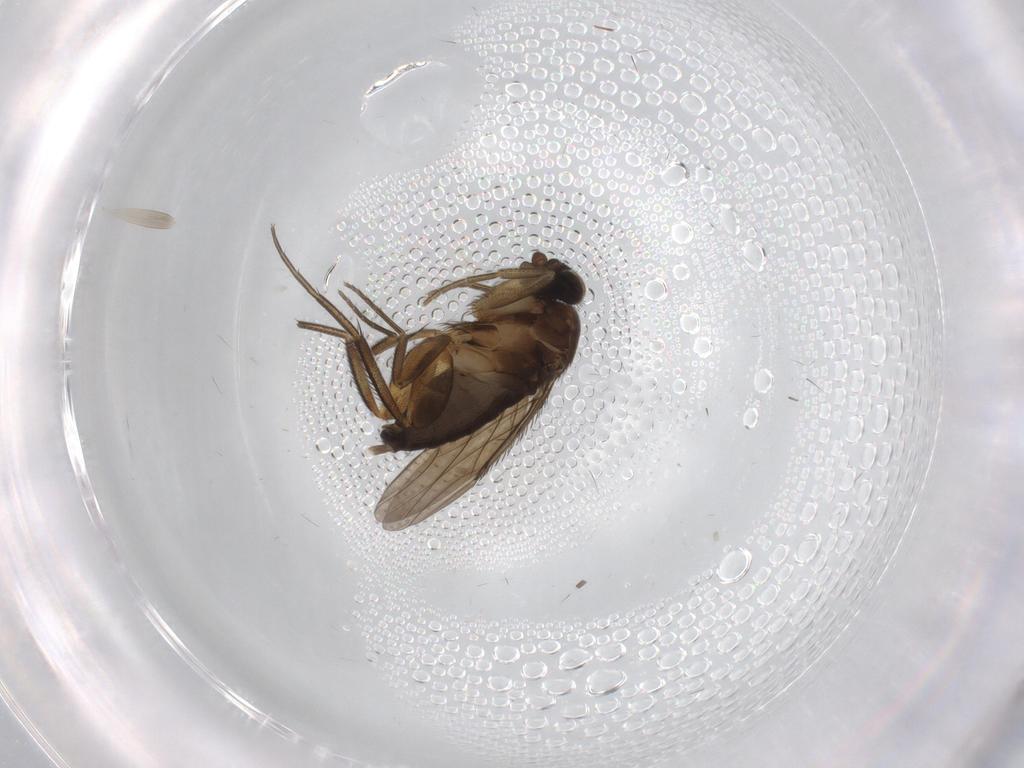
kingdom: Animalia
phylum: Arthropoda
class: Insecta
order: Diptera
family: Phoridae
